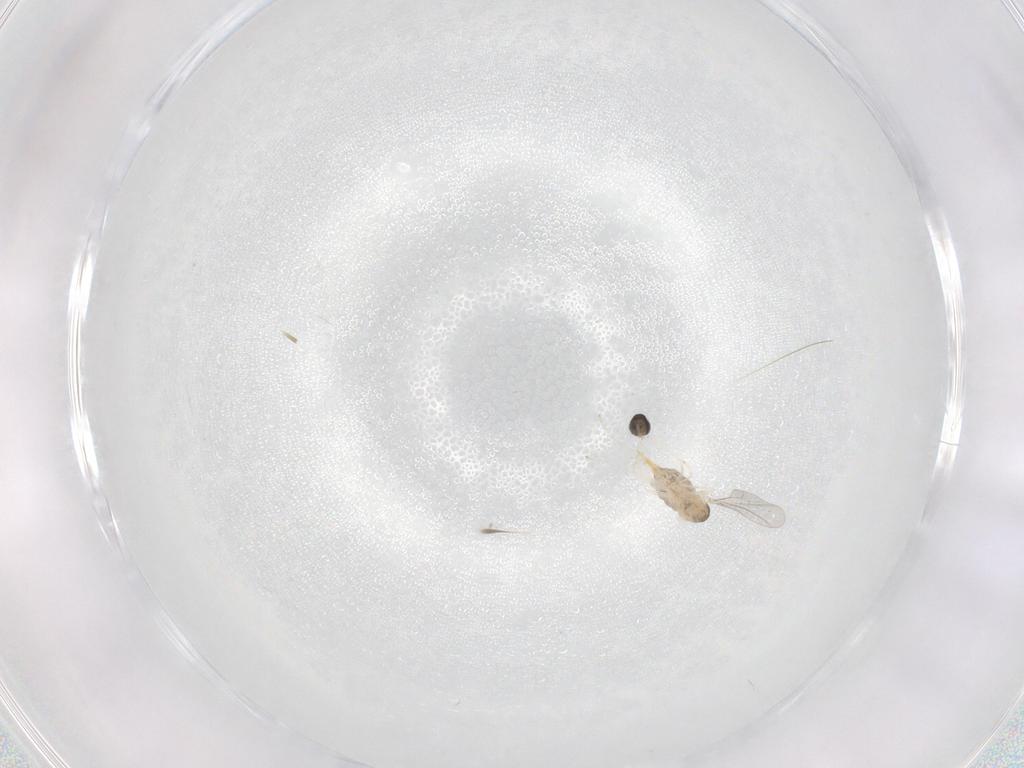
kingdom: Animalia
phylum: Arthropoda
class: Insecta
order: Diptera
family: Cecidomyiidae
